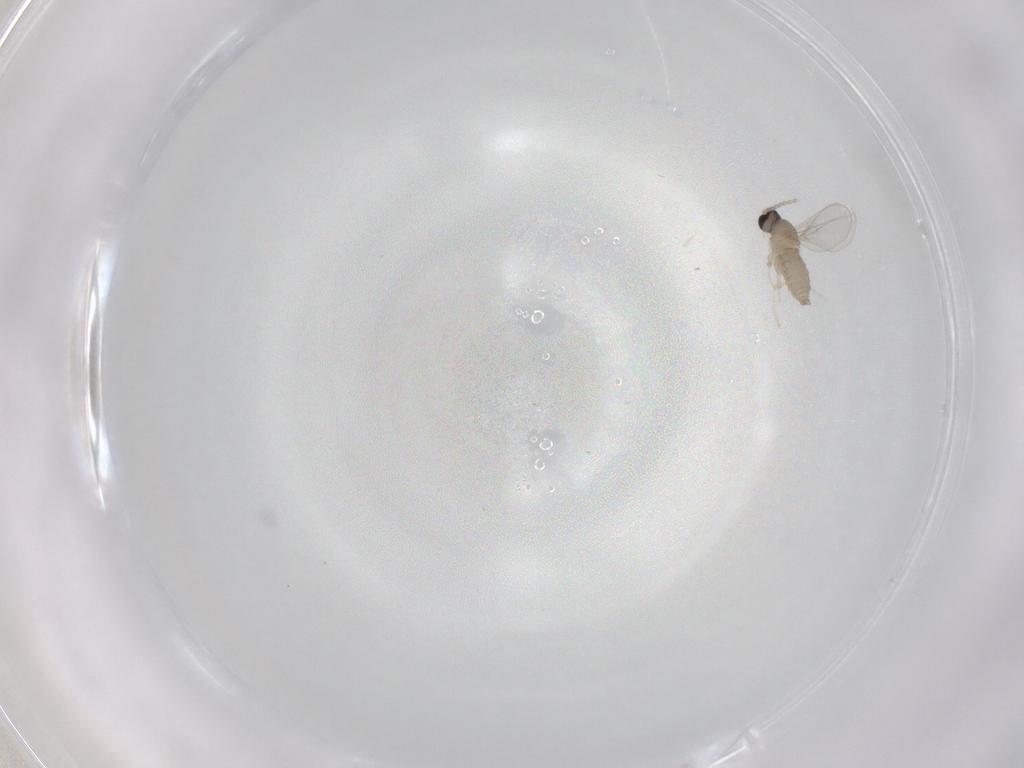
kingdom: Animalia
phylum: Arthropoda
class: Insecta
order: Diptera
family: Cecidomyiidae
